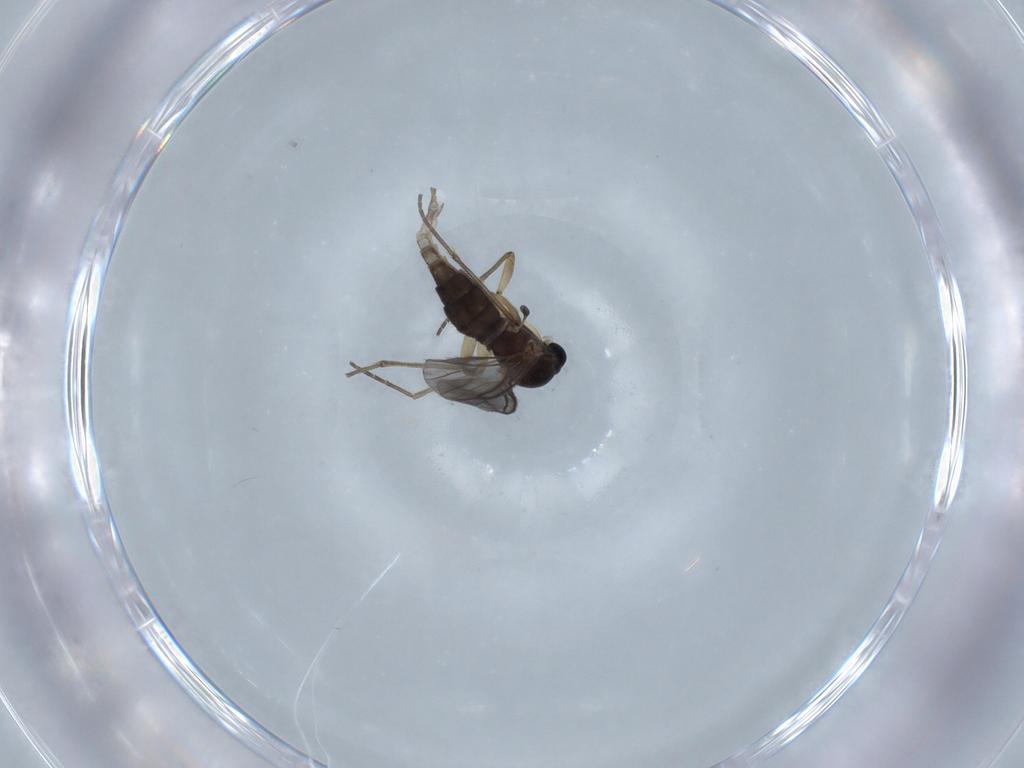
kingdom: Animalia
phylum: Arthropoda
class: Insecta
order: Diptera
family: Sciaridae
